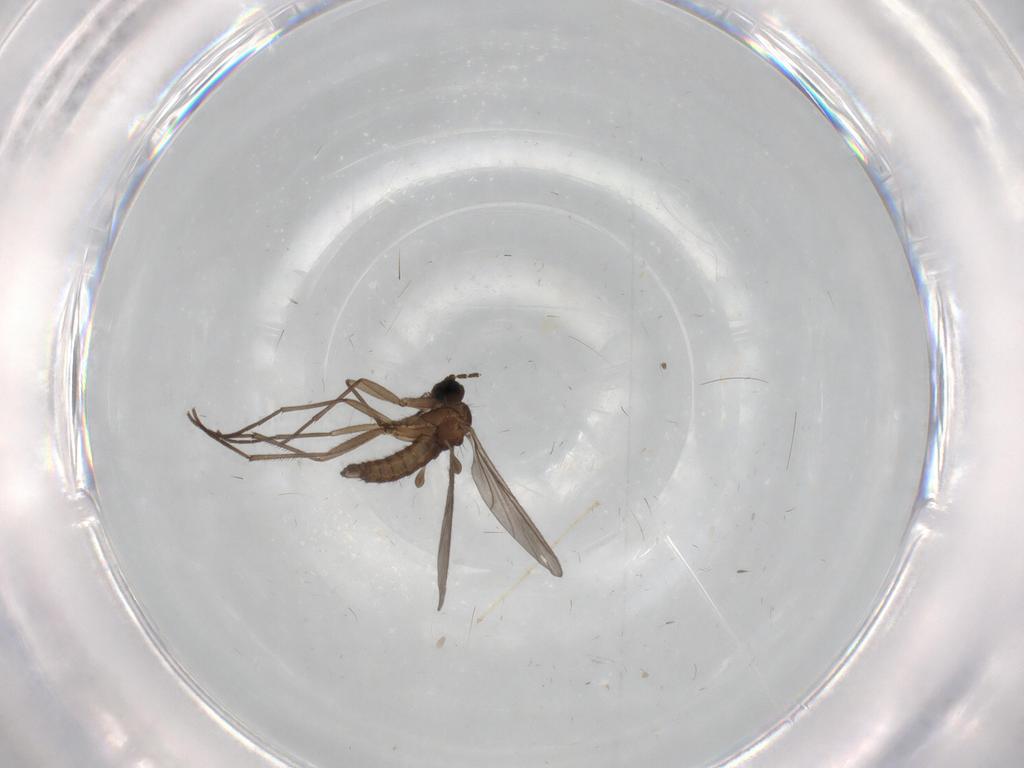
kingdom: Animalia
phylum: Arthropoda
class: Insecta
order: Diptera
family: Chironomidae
